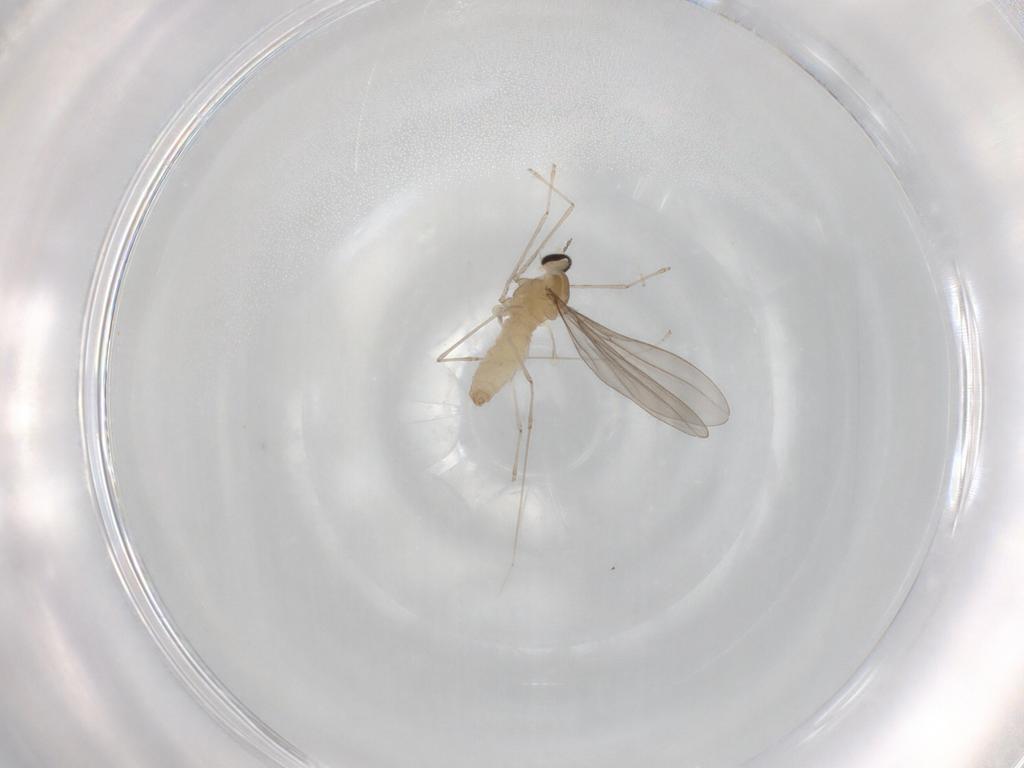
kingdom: Animalia
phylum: Arthropoda
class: Insecta
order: Diptera
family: Cecidomyiidae
